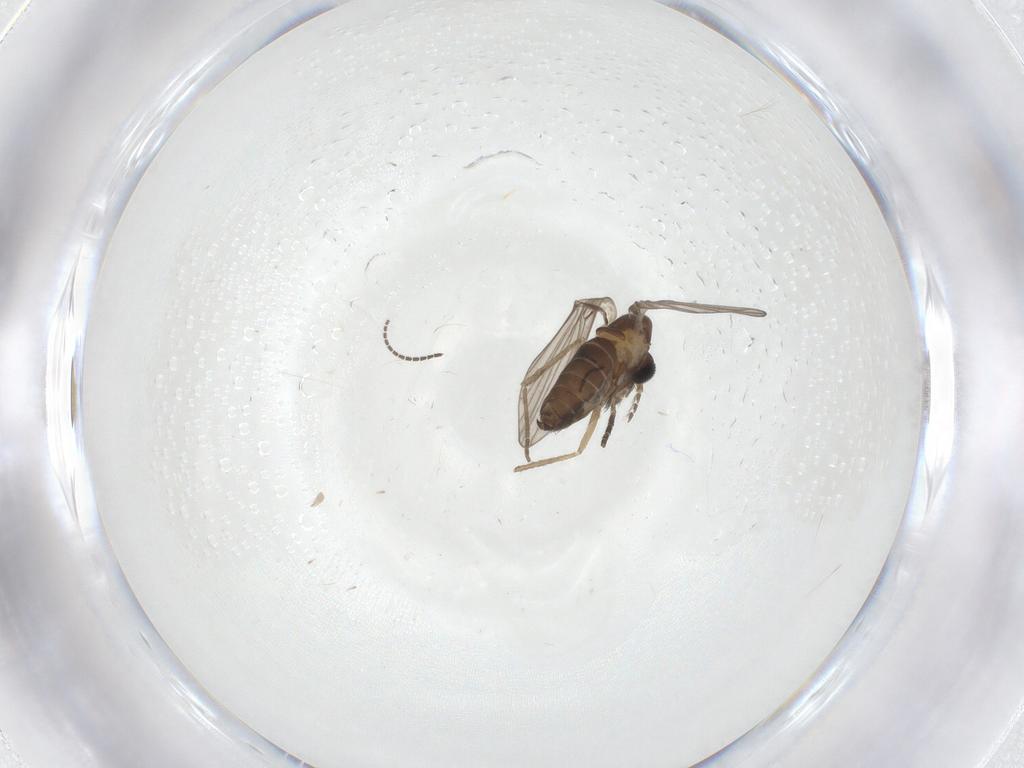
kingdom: Animalia
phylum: Arthropoda
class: Insecta
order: Diptera
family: Psychodidae
